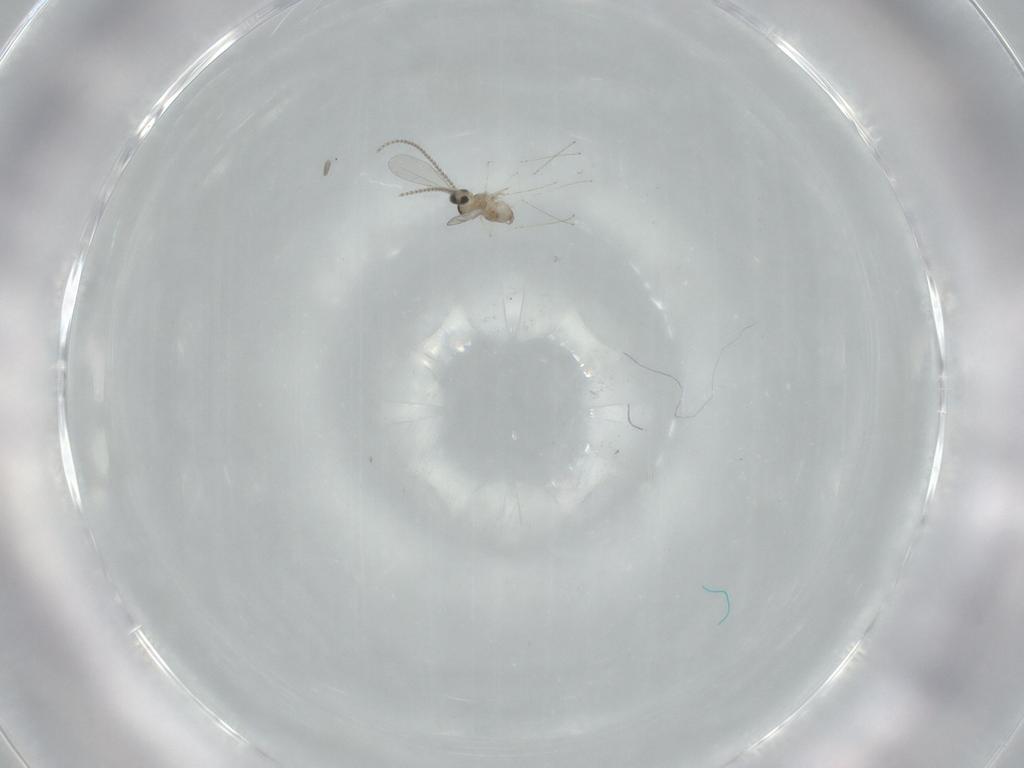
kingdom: Animalia
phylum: Arthropoda
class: Insecta
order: Diptera
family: Cecidomyiidae
